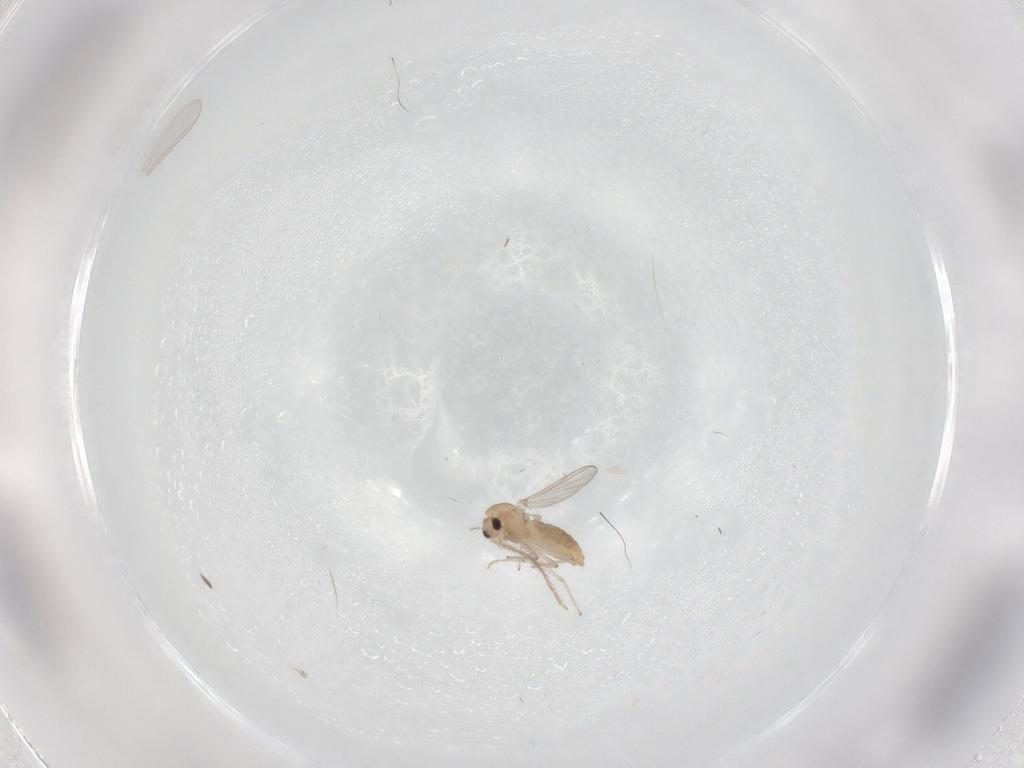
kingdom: Animalia
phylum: Arthropoda
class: Insecta
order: Diptera
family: Chironomidae
